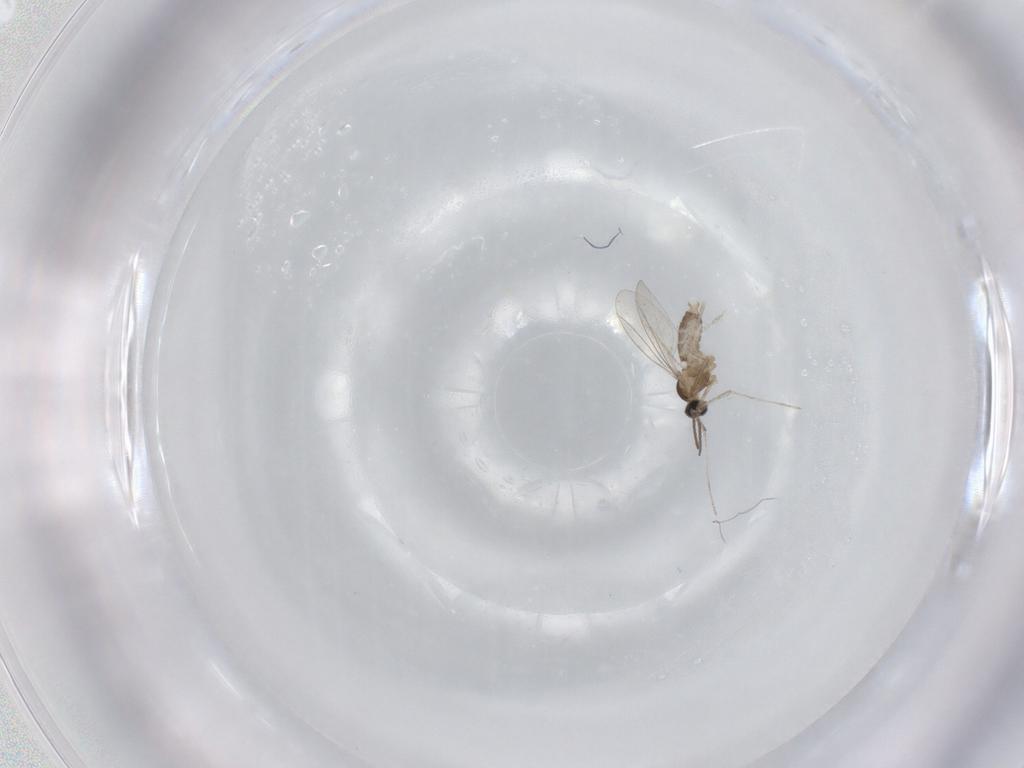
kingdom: Animalia
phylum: Arthropoda
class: Insecta
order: Diptera
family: Cecidomyiidae
